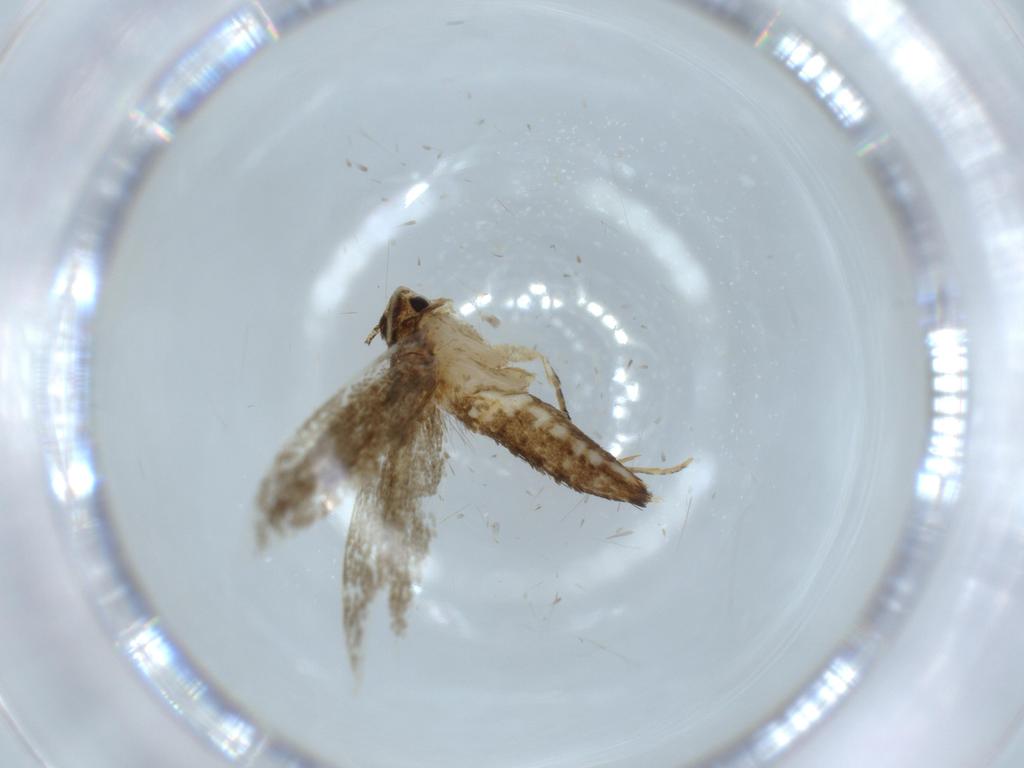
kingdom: Animalia
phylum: Arthropoda
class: Insecta
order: Lepidoptera
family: Tineidae
